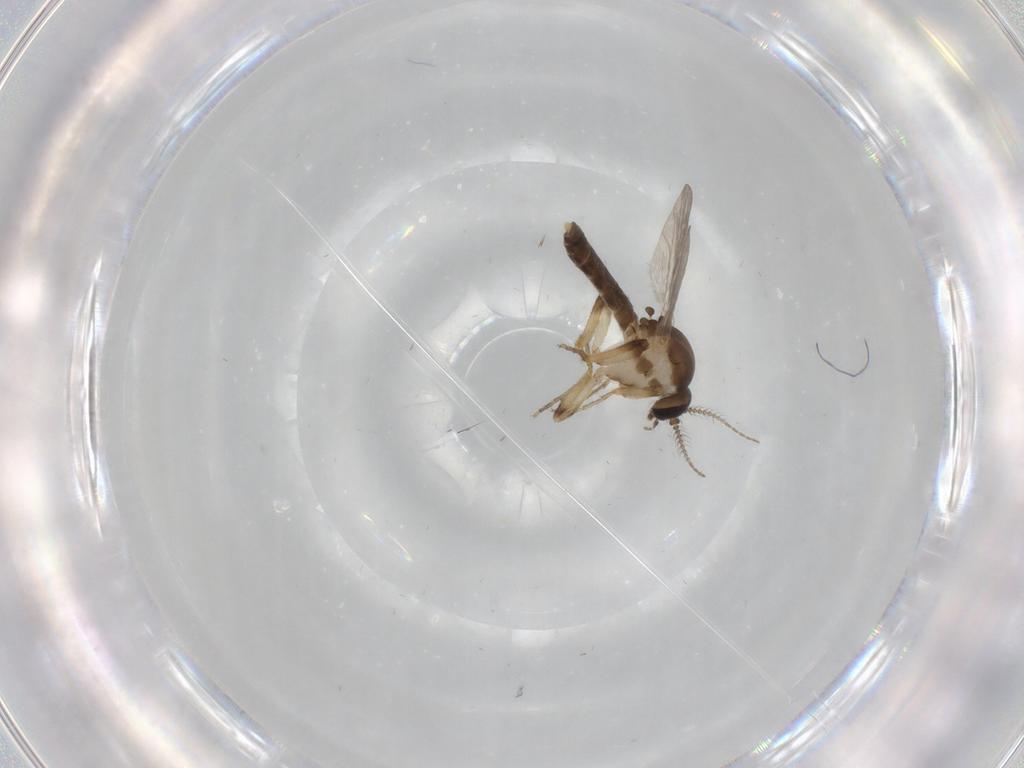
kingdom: Animalia
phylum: Arthropoda
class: Insecta
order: Diptera
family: Ceratopogonidae
